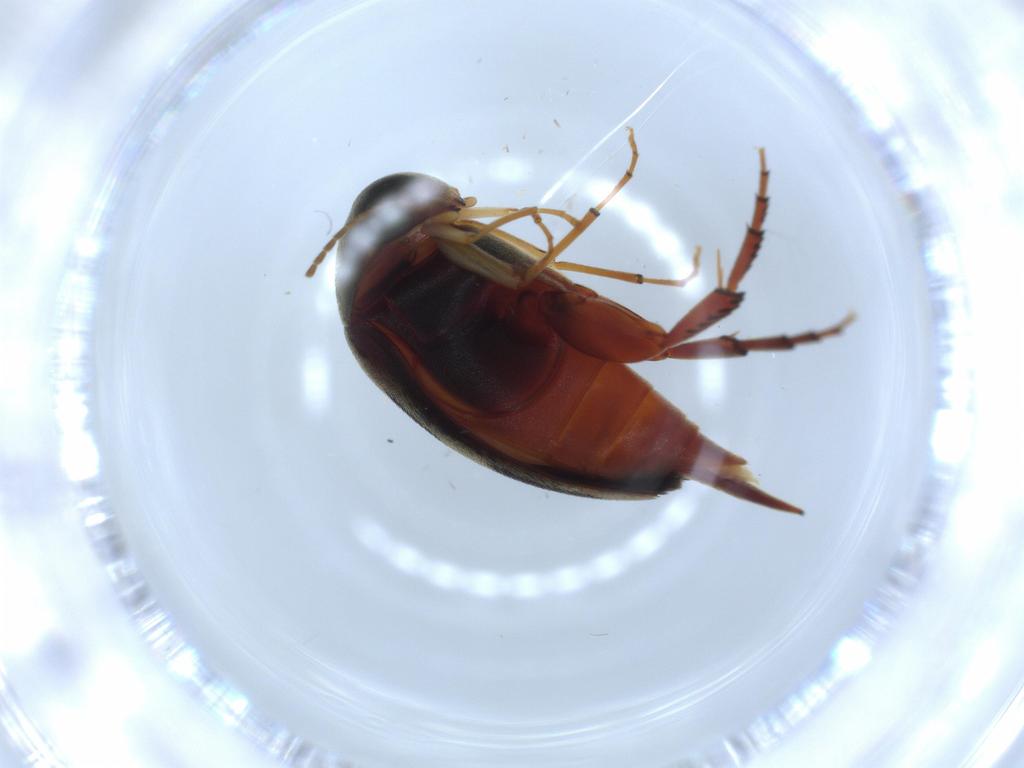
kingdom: Animalia
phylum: Arthropoda
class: Insecta
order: Coleoptera
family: Mordellidae
